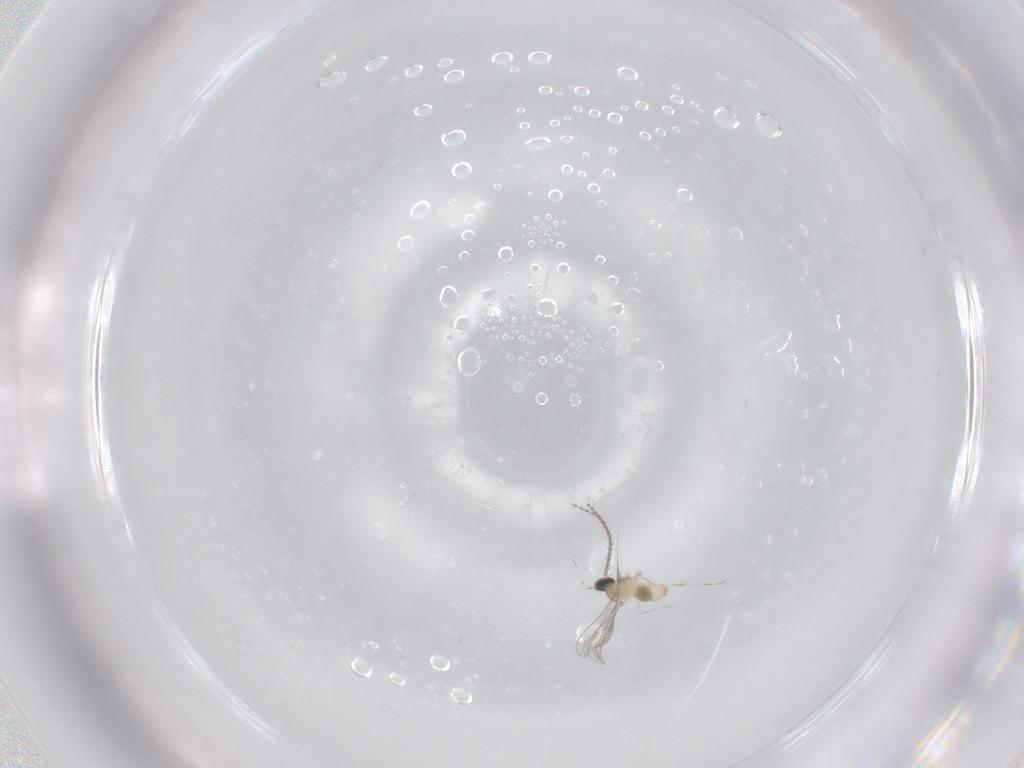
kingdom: Animalia
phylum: Arthropoda
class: Insecta
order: Diptera
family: Cecidomyiidae
